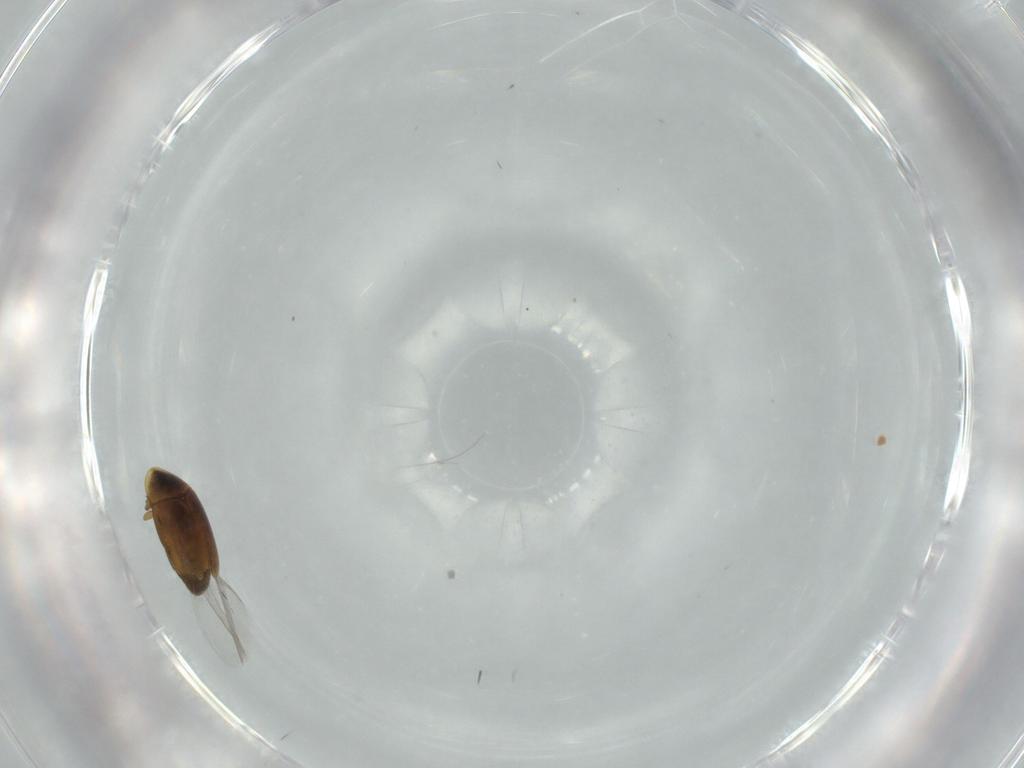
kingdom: Animalia
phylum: Arthropoda
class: Insecta
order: Coleoptera
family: Corylophidae
